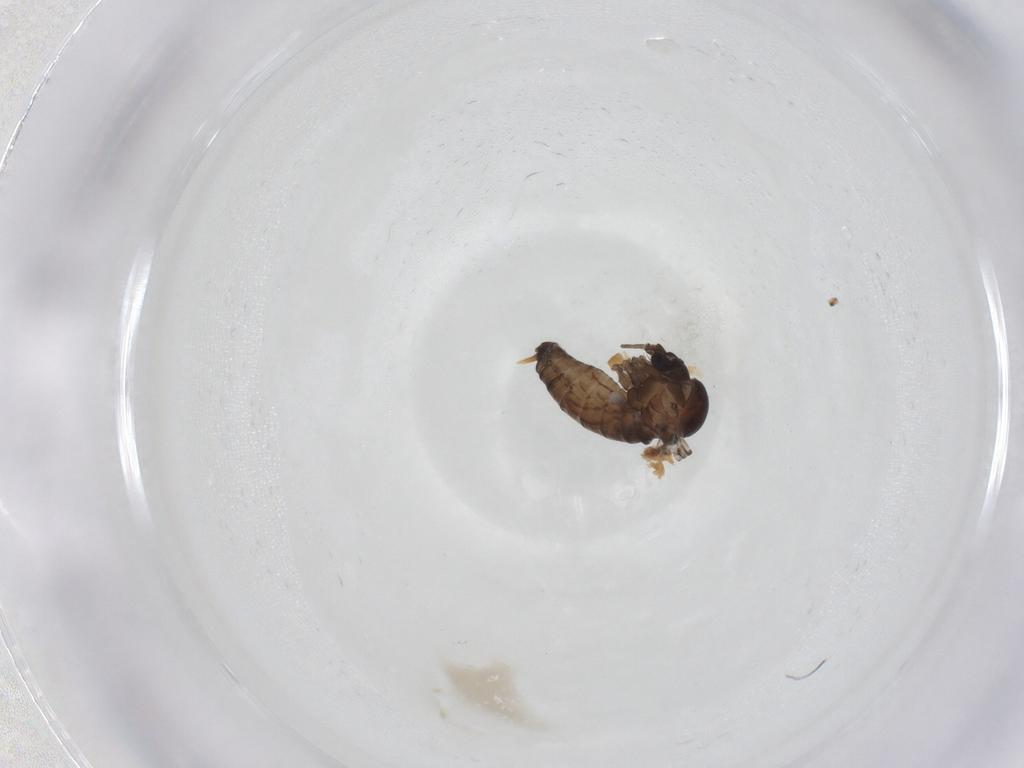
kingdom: Animalia
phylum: Arthropoda
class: Insecta
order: Diptera
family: Psychodidae
